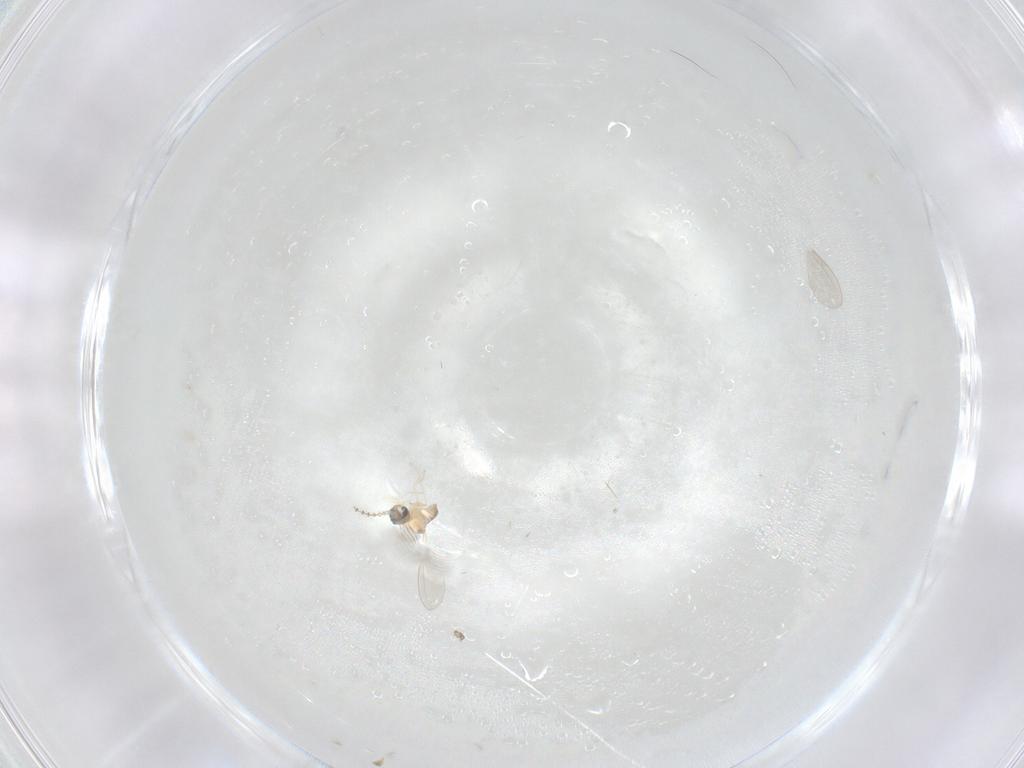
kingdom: Animalia
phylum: Arthropoda
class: Insecta
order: Diptera
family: Cecidomyiidae
